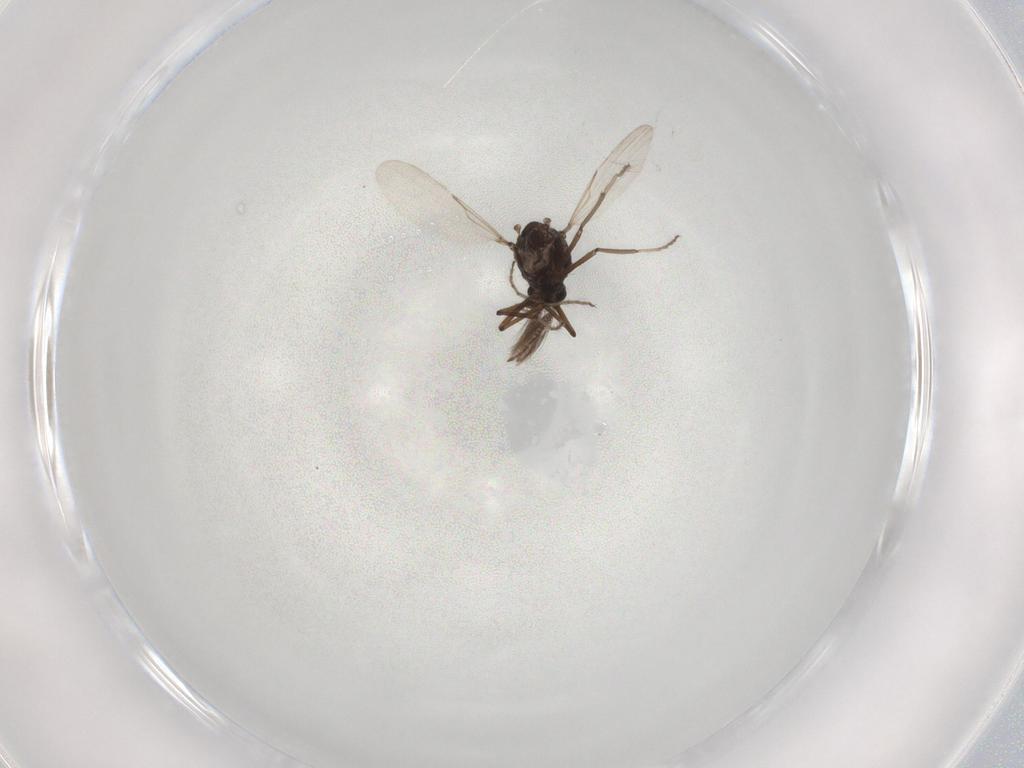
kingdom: Animalia
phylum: Arthropoda
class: Insecta
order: Diptera
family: Chironomidae
